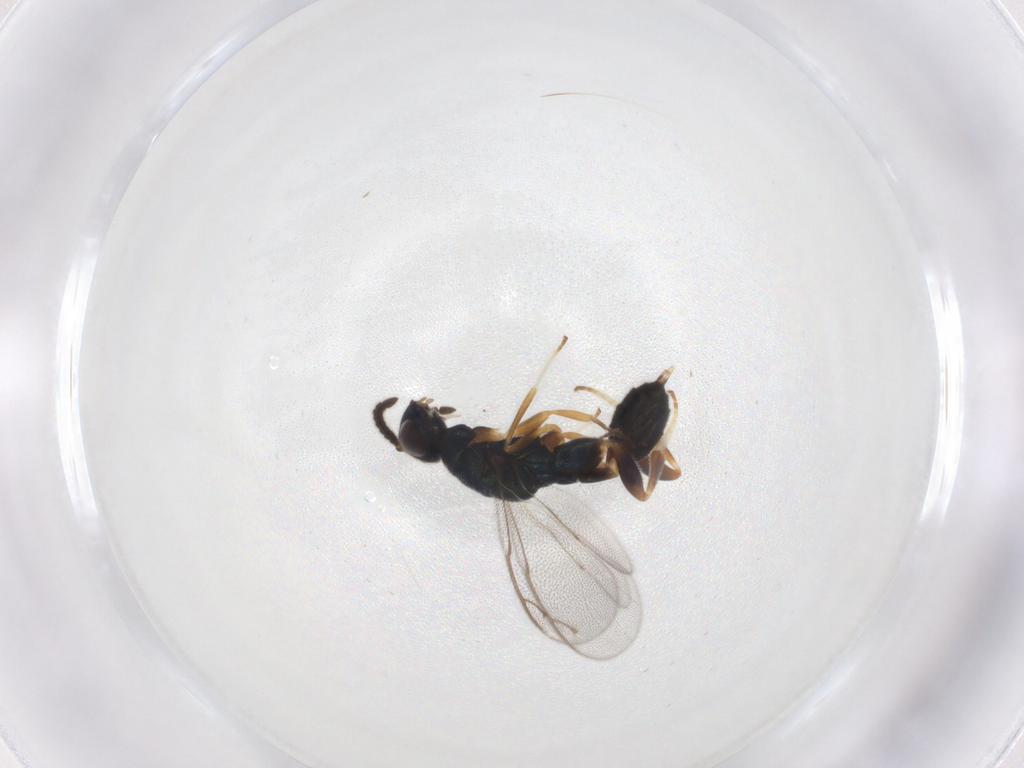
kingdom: Animalia
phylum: Arthropoda
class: Insecta
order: Hymenoptera
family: Cleonyminae
